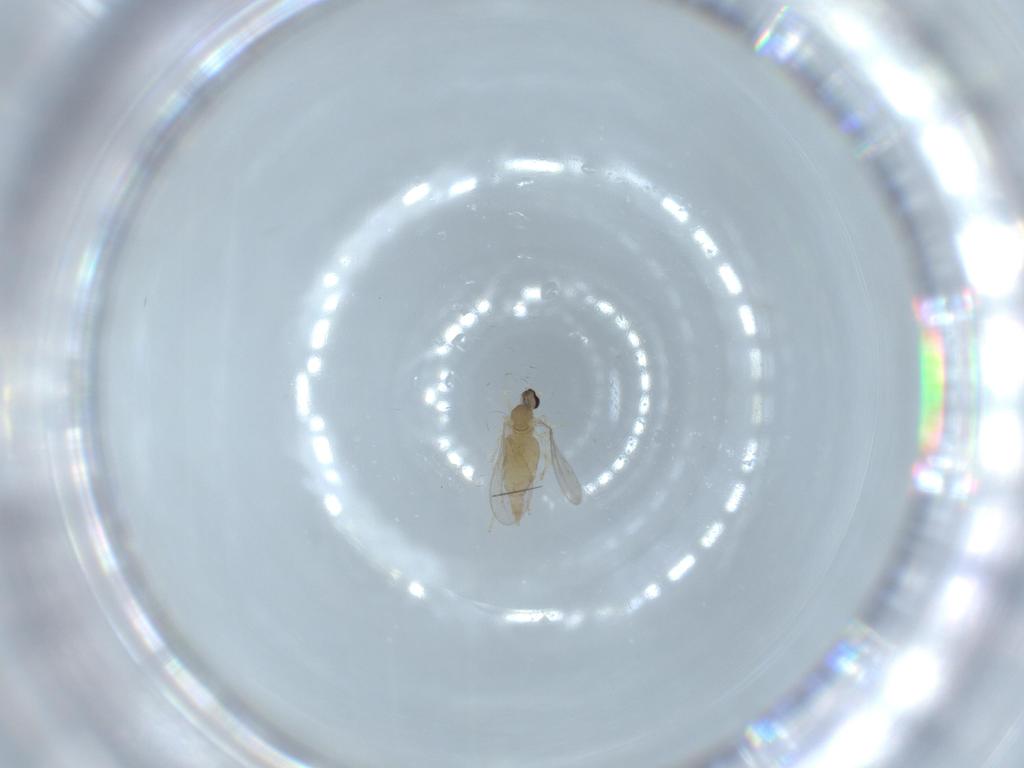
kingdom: Animalia
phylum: Arthropoda
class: Insecta
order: Diptera
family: Cecidomyiidae
